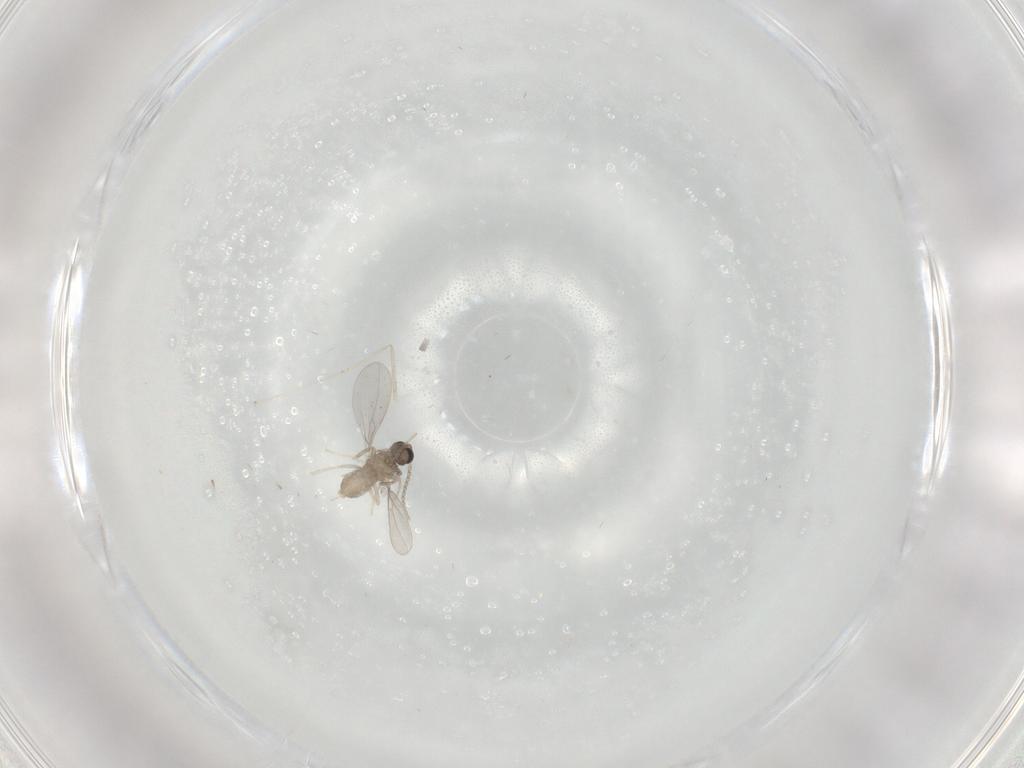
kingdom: Animalia
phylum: Arthropoda
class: Insecta
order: Diptera
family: Cecidomyiidae
